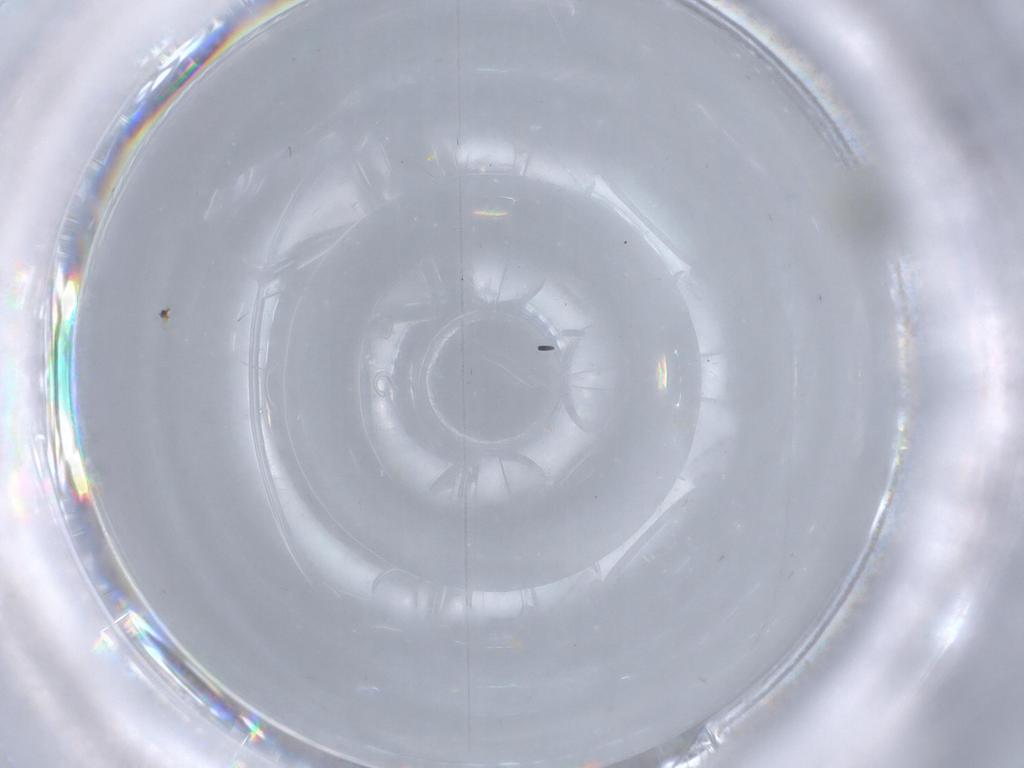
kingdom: Animalia
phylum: Arthropoda
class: Insecta
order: Diptera
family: Cecidomyiidae
